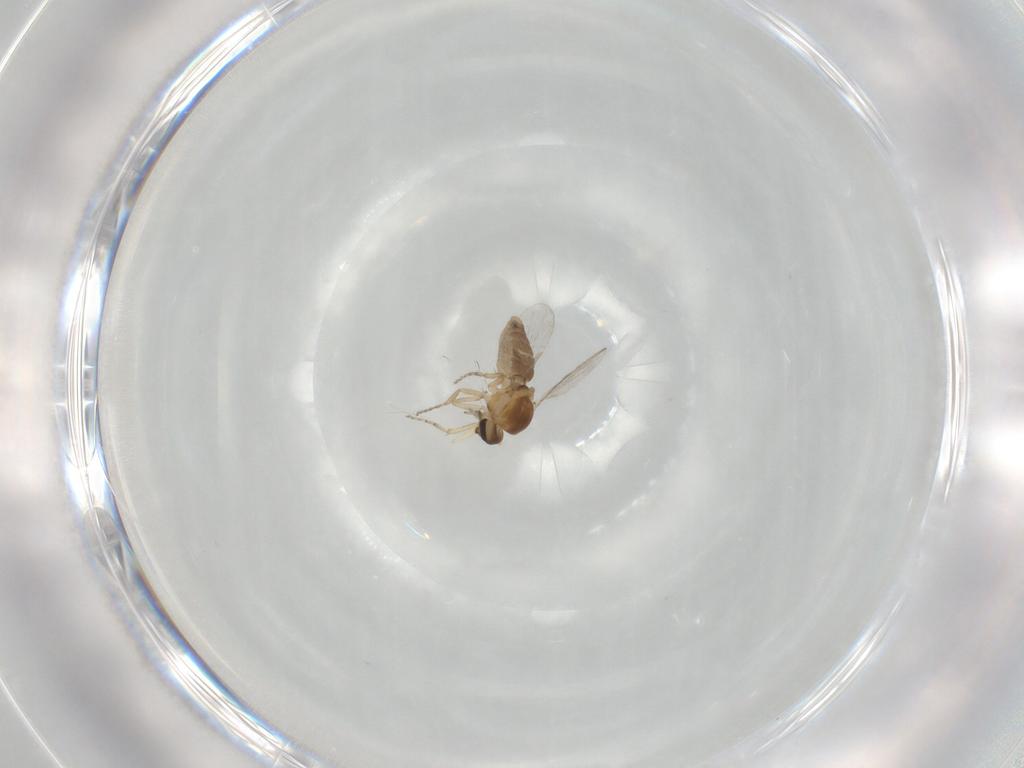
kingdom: Animalia
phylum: Arthropoda
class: Insecta
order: Diptera
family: Ceratopogonidae
